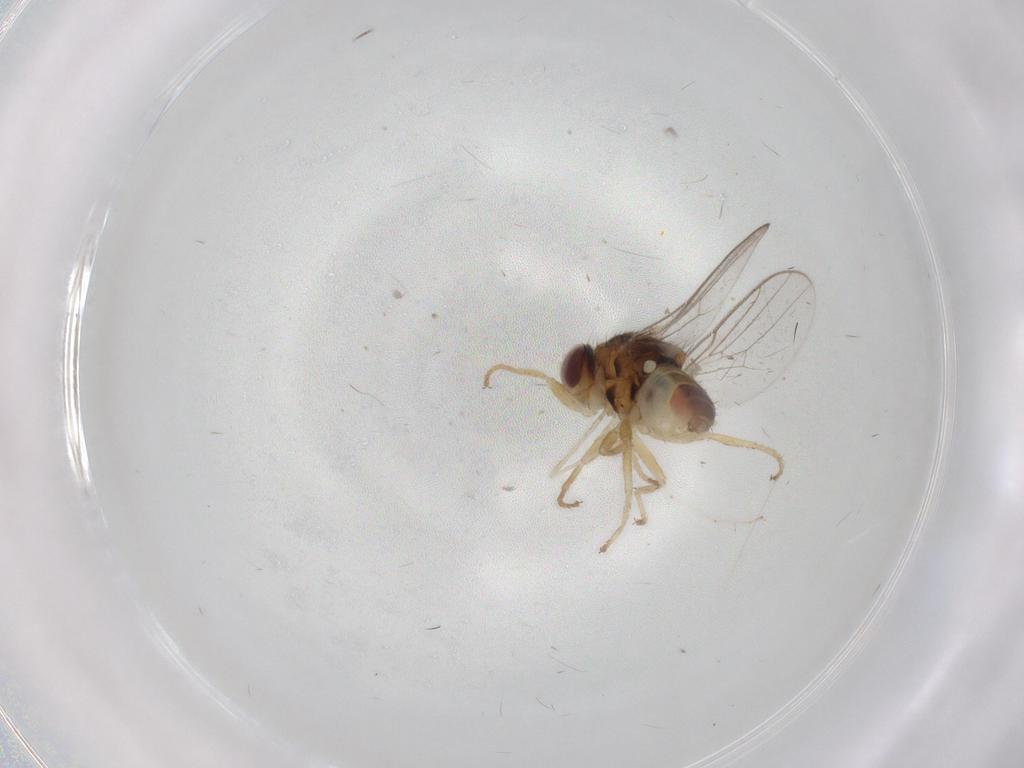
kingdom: Animalia
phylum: Arthropoda
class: Insecta
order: Diptera
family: Chloropidae
